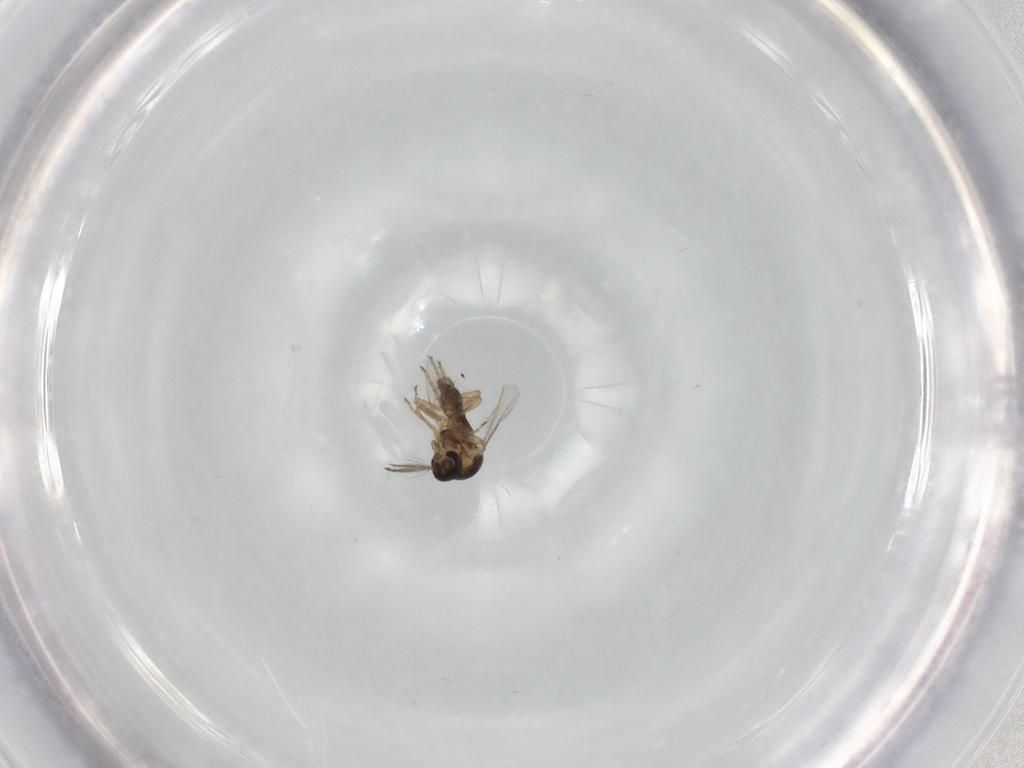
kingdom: Animalia
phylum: Arthropoda
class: Insecta
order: Diptera
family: Ceratopogonidae
